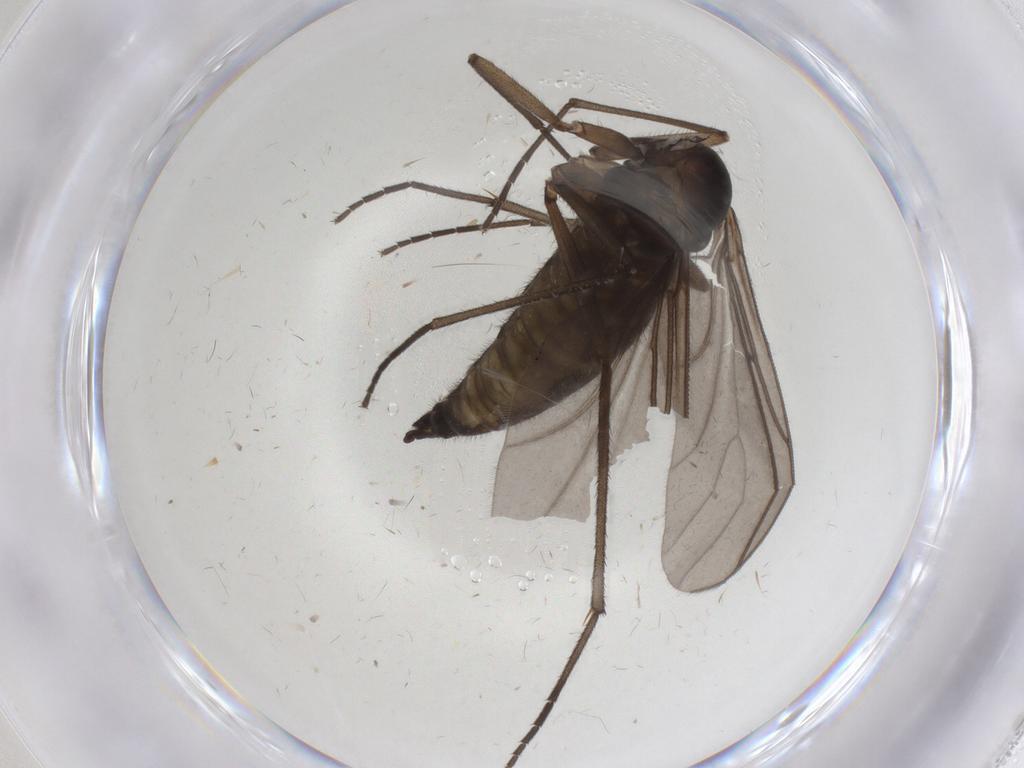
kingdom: Animalia
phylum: Arthropoda
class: Insecta
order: Diptera
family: Sciaridae
